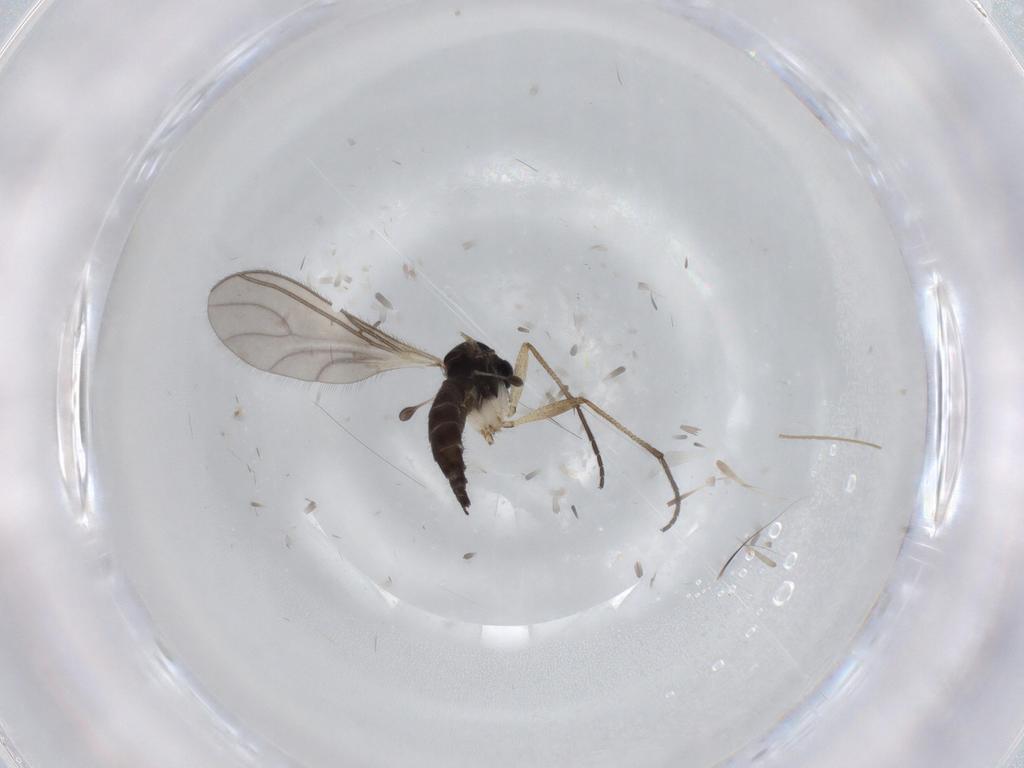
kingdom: Animalia
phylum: Arthropoda
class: Insecta
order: Diptera
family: Sciaridae
